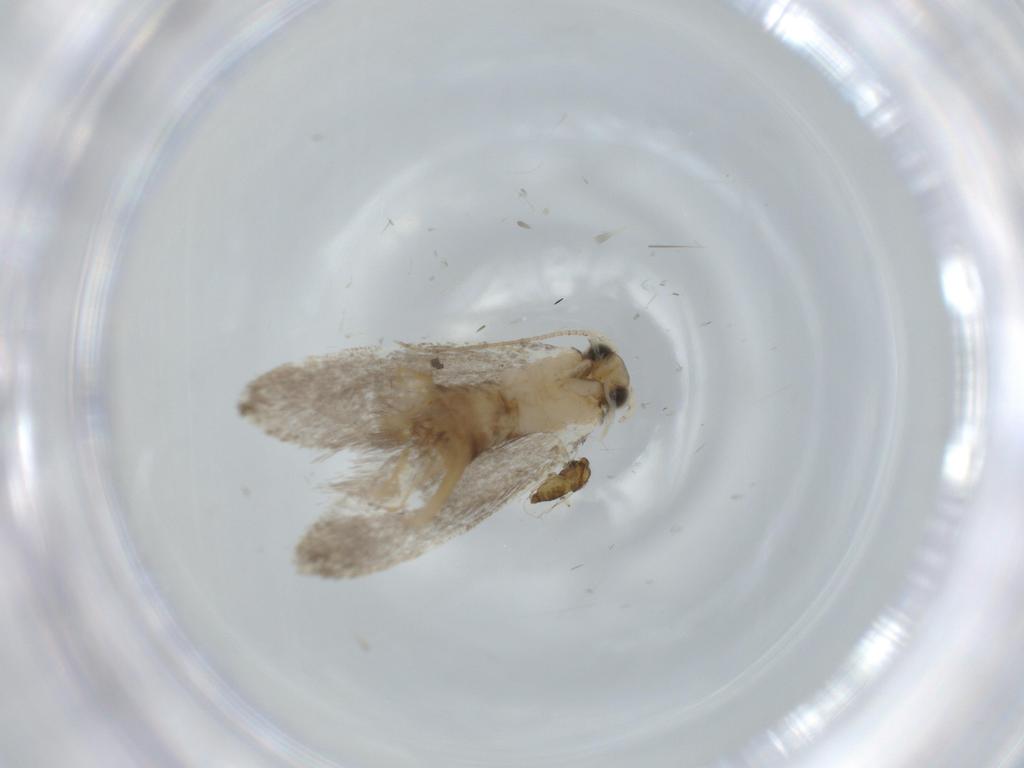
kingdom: Animalia
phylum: Arthropoda
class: Insecta
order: Diptera
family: Chironomidae
